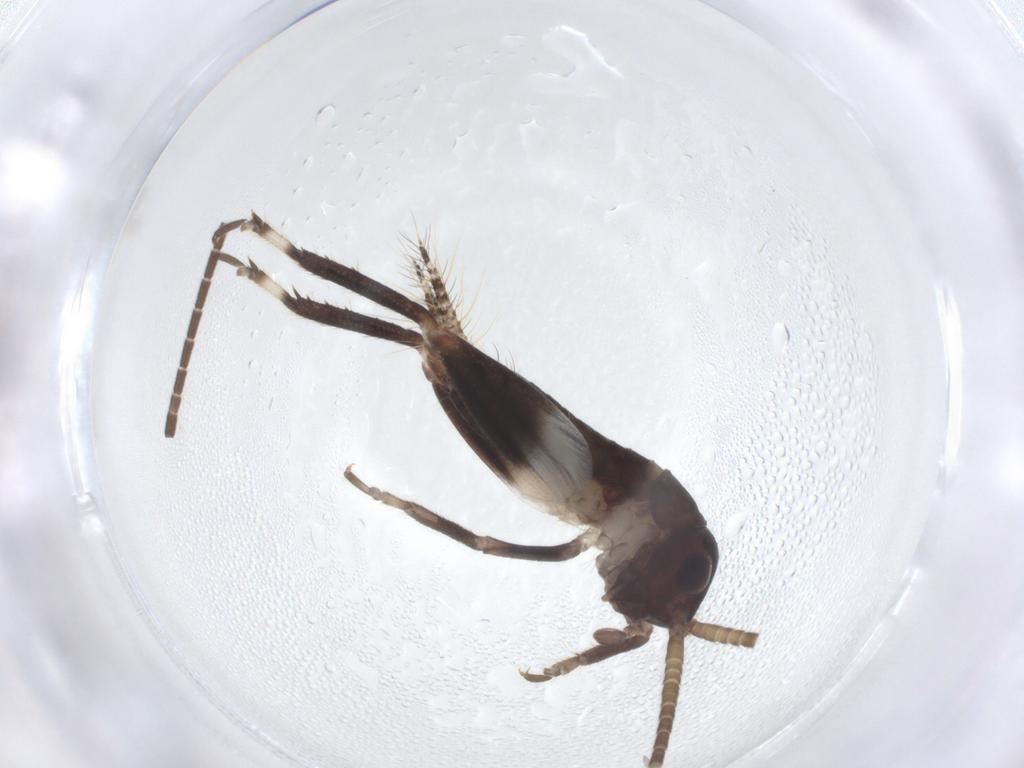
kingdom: Animalia
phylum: Arthropoda
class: Insecta
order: Orthoptera
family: Gryllidae
